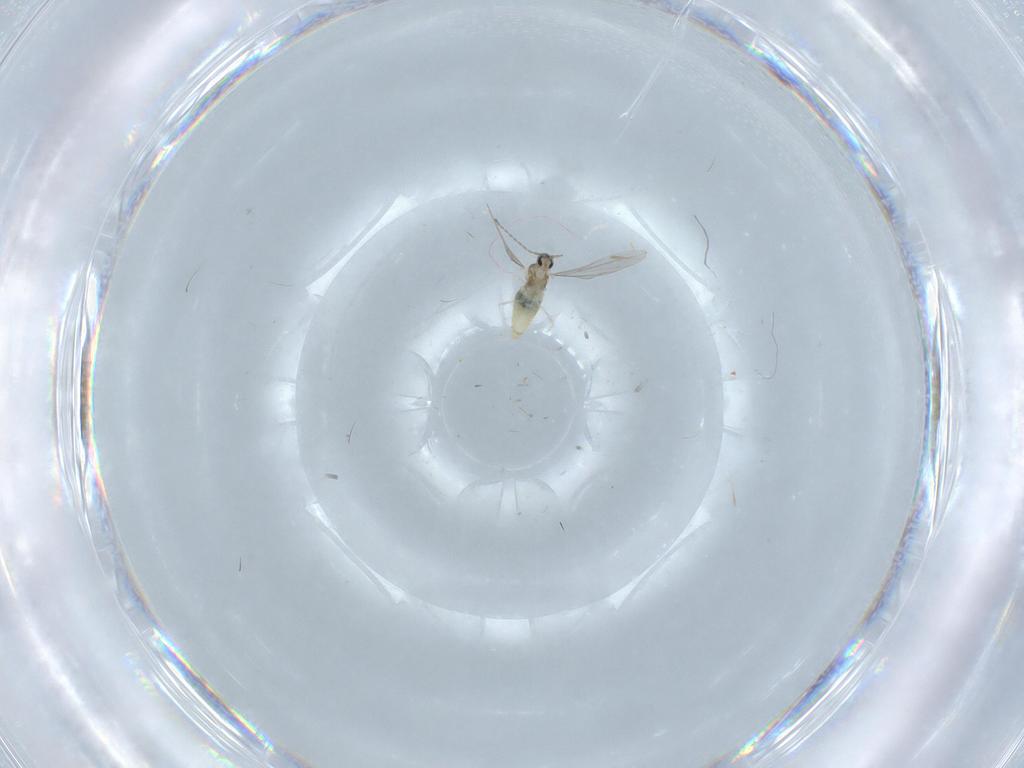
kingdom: Animalia
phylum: Arthropoda
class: Insecta
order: Diptera
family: Cecidomyiidae
